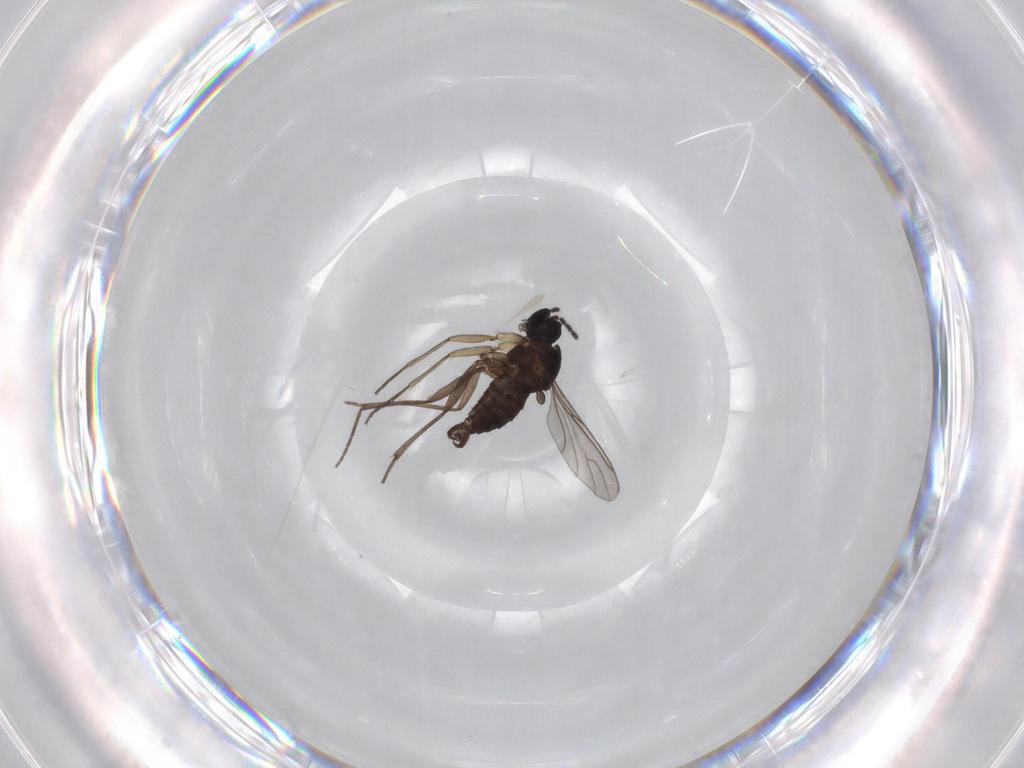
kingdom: Animalia
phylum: Arthropoda
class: Insecta
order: Diptera
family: Sciaridae
